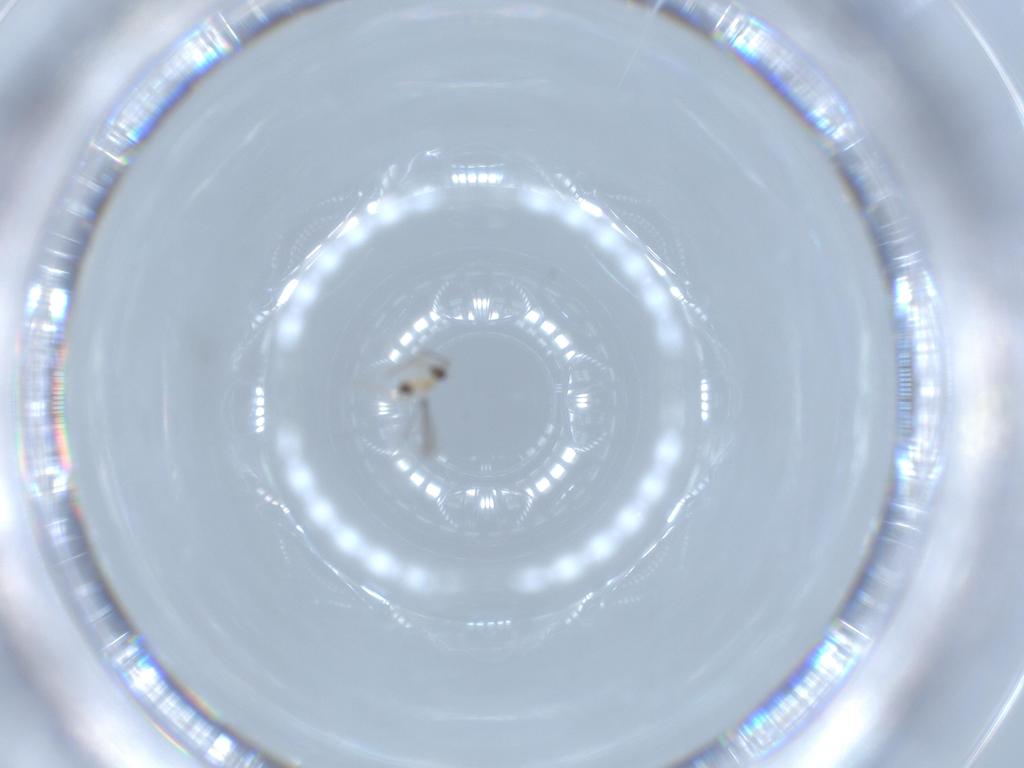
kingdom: Animalia
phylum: Arthropoda
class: Insecta
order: Hymenoptera
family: Mymaridae
